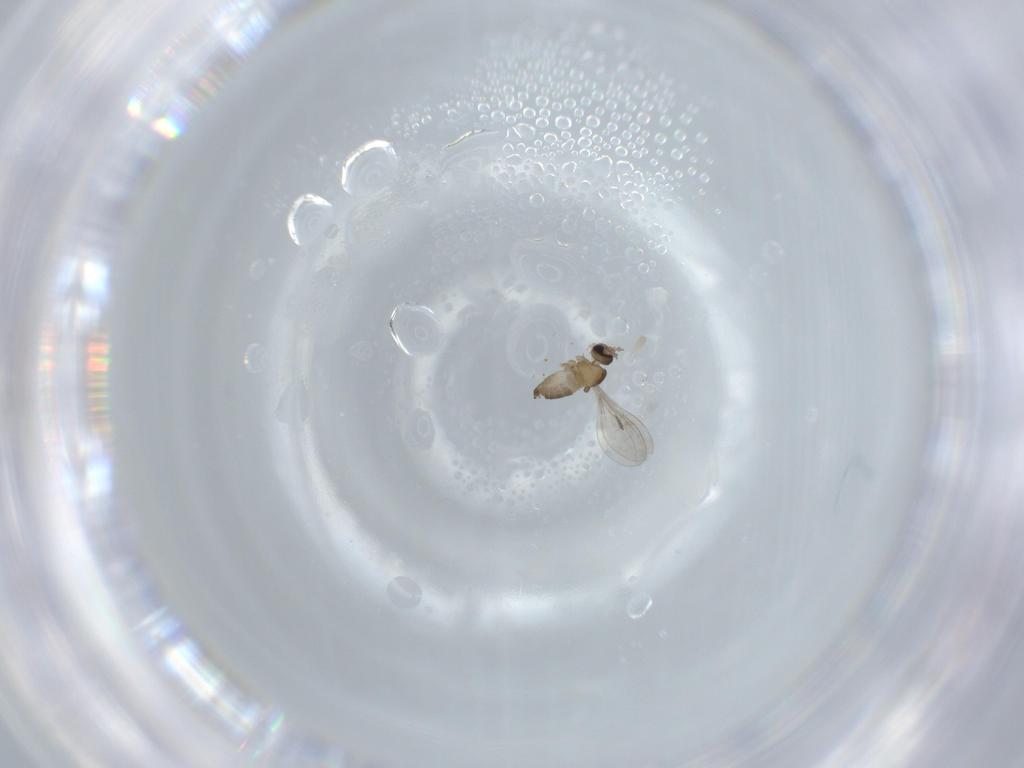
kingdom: Animalia
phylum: Arthropoda
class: Insecta
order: Diptera
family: Cecidomyiidae
